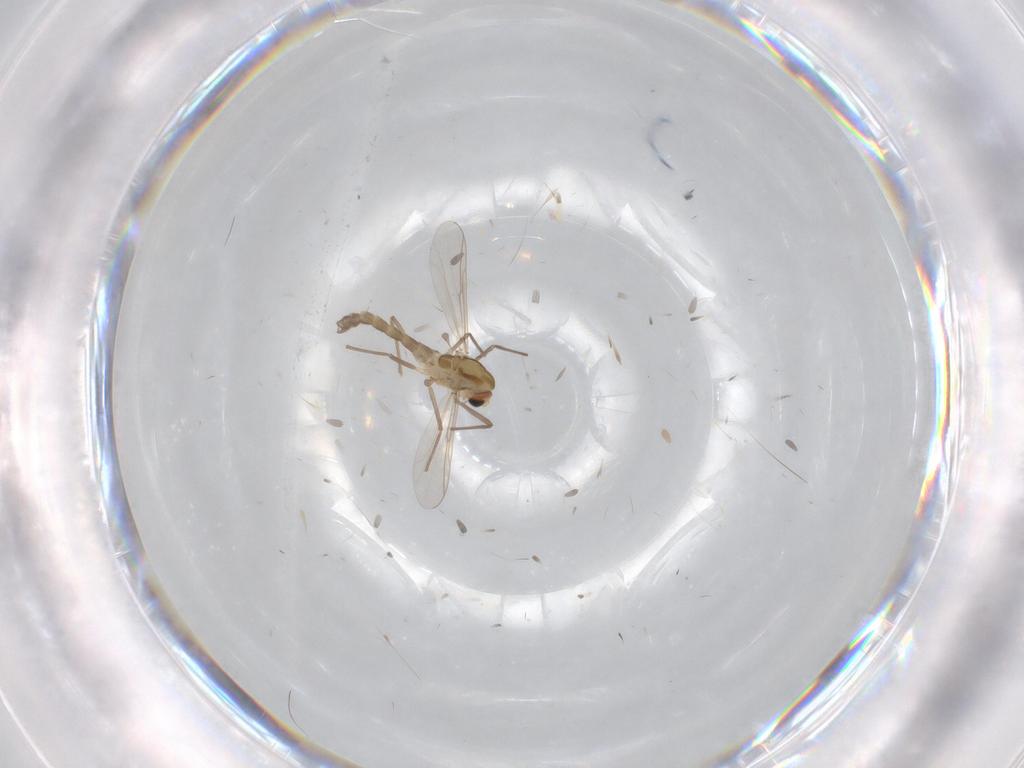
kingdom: Animalia
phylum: Arthropoda
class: Insecta
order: Diptera
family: Chironomidae
